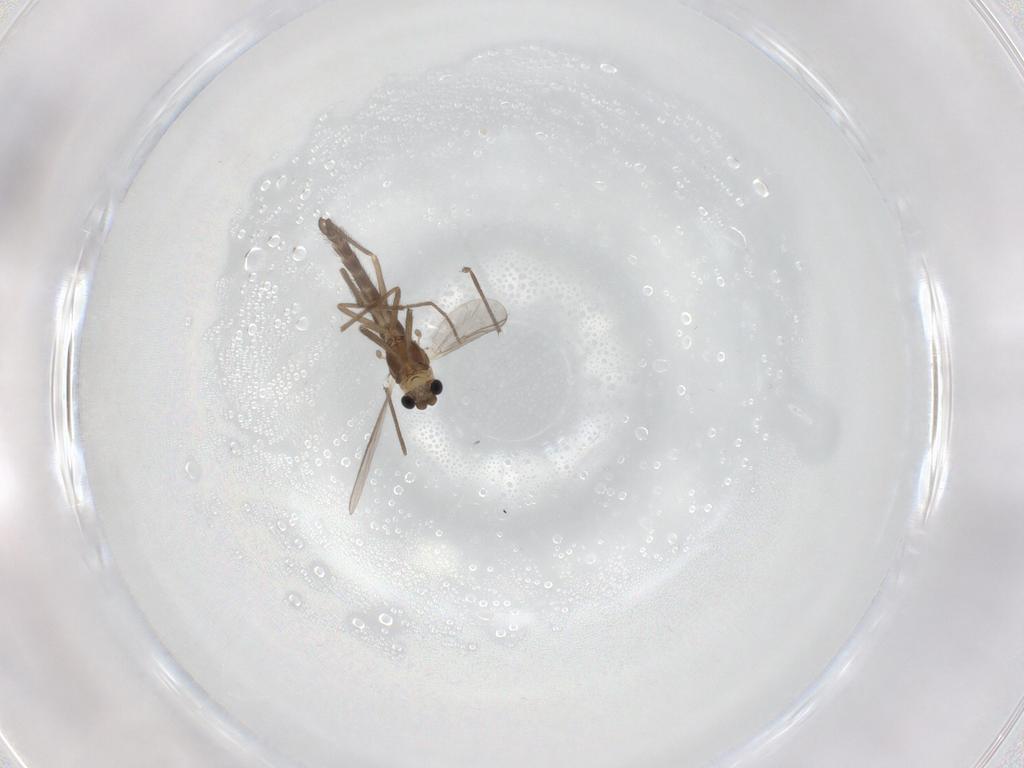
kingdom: Animalia
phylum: Arthropoda
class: Insecta
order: Diptera
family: Chironomidae
